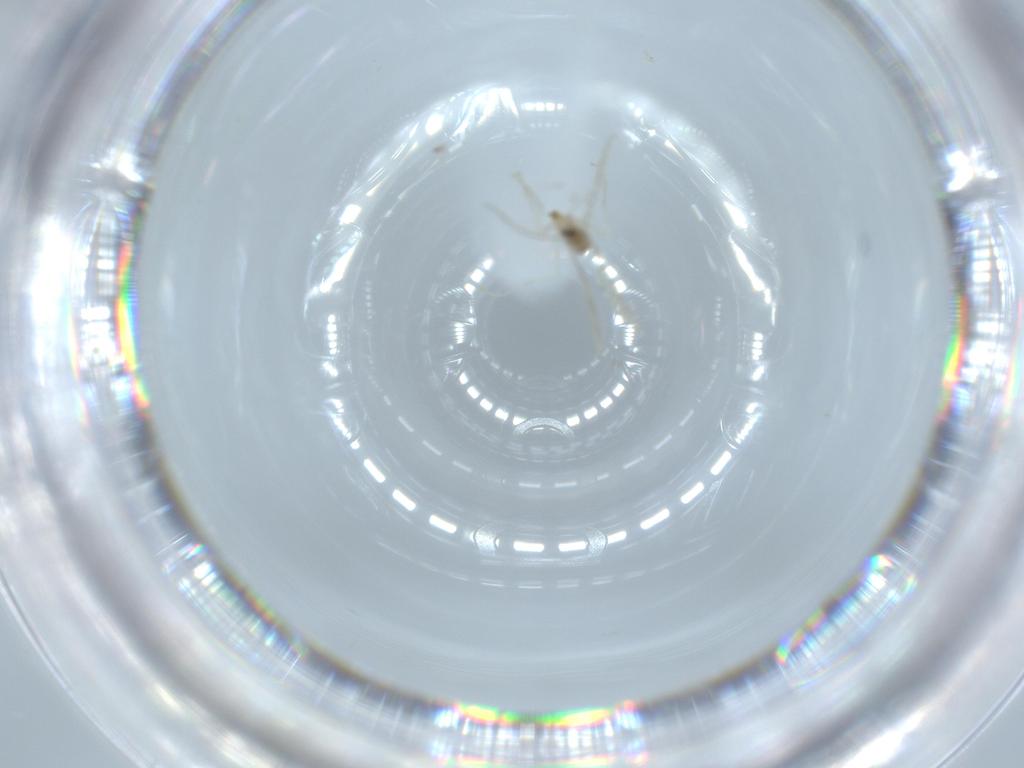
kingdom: Animalia
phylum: Arthropoda
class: Insecta
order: Diptera
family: Cecidomyiidae
